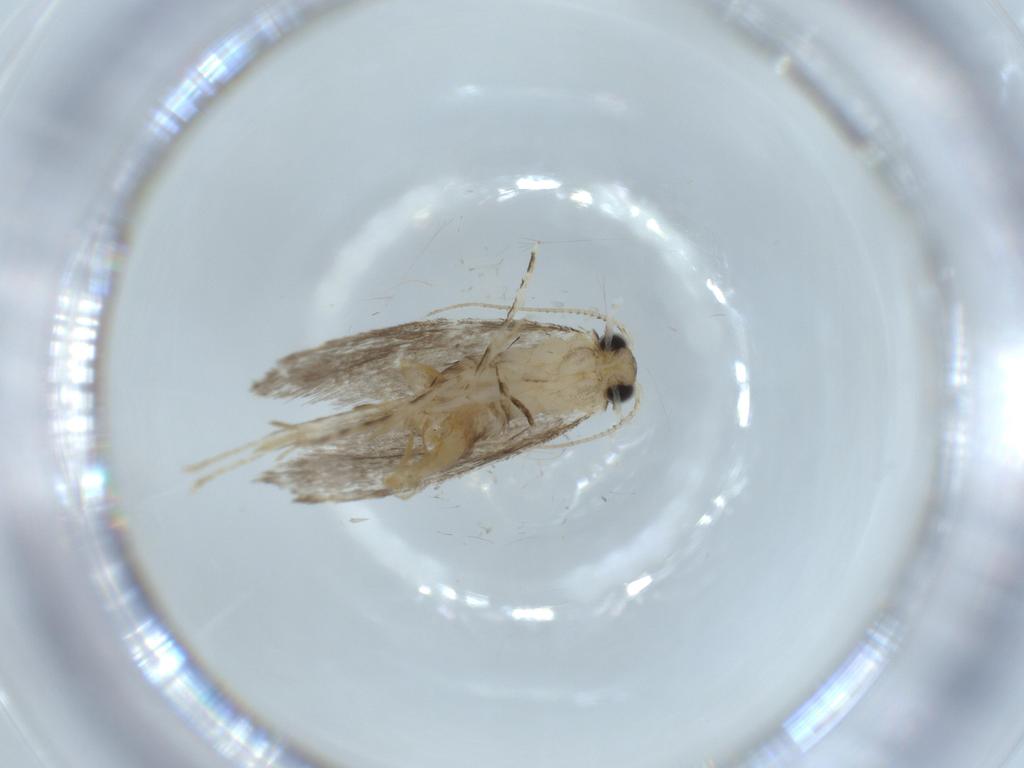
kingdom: Animalia
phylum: Arthropoda
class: Insecta
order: Lepidoptera
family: Tineidae
